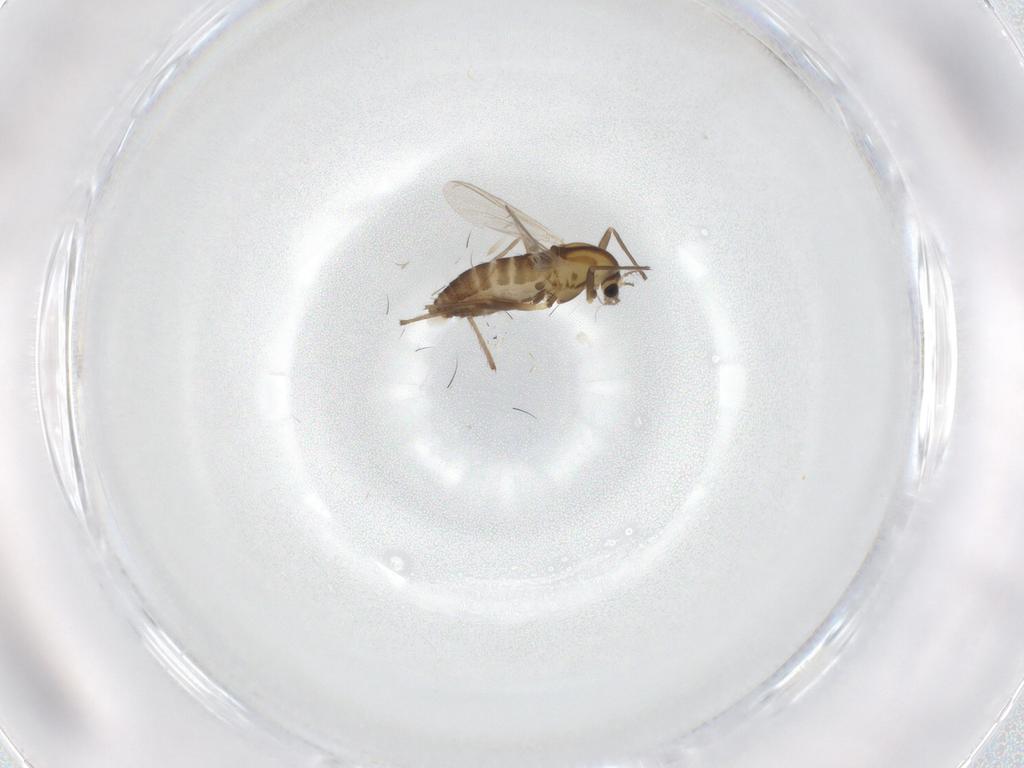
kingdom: Animalia
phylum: Arthropoda
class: Insecta
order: Diptera
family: Chironomidae
